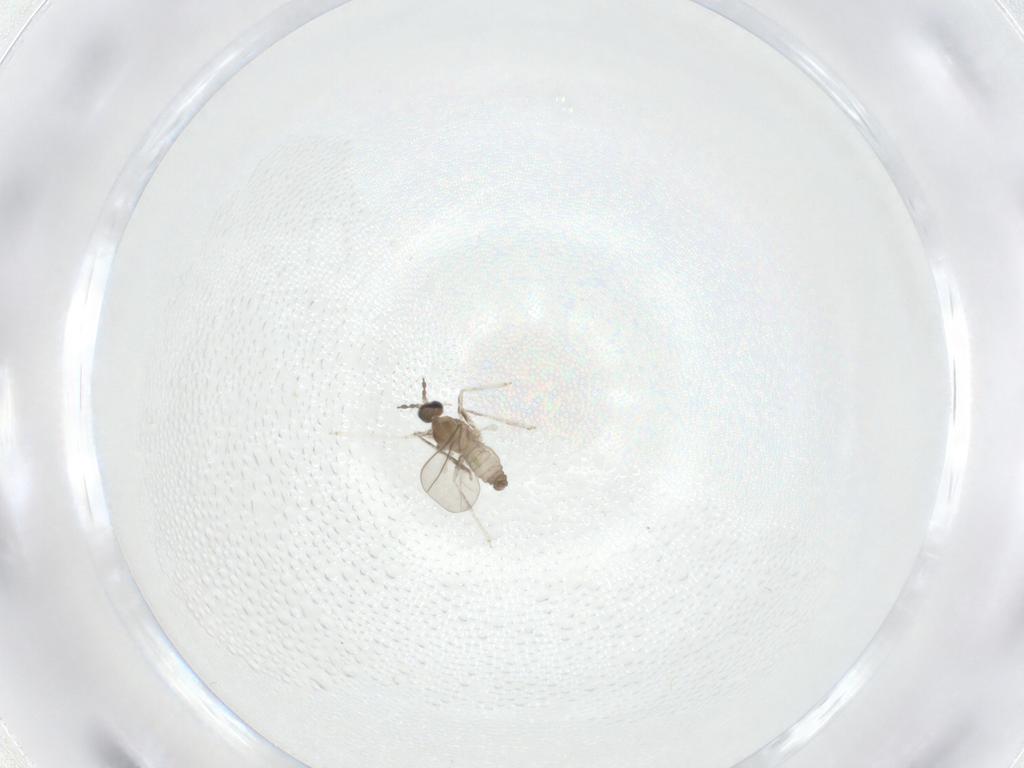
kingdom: Animalia
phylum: Arthropoda
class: Insecta
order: Diptera
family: Cecidomyiidae
